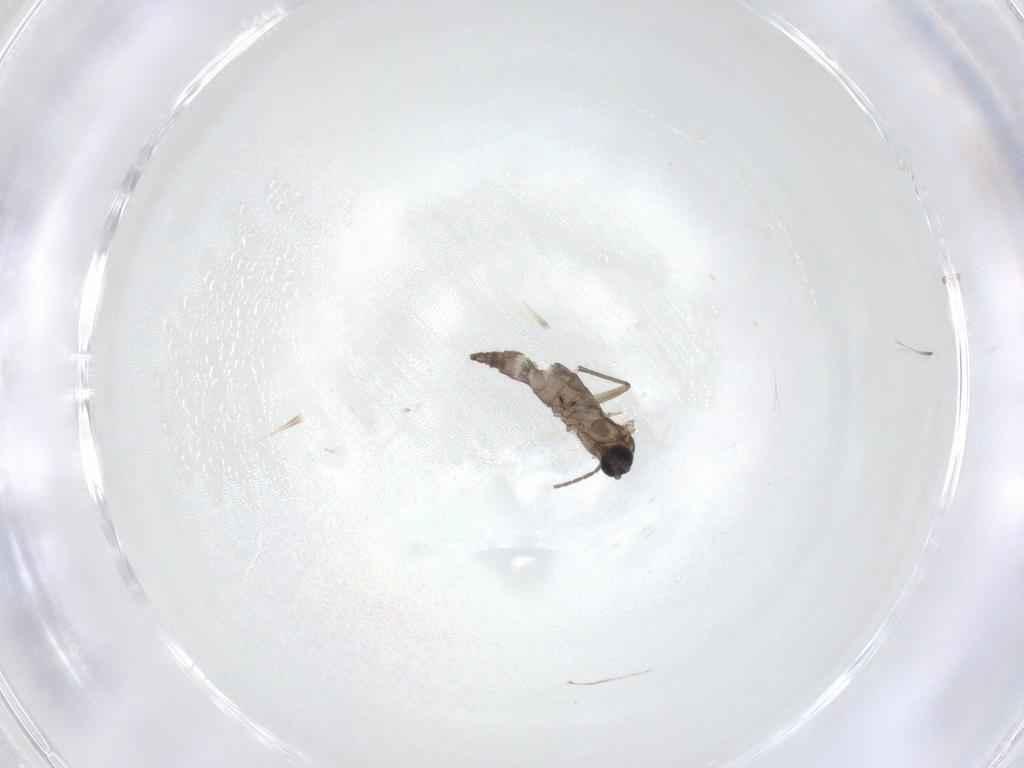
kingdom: Animalia
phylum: Arthropoda
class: Insecta
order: Diptera
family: Sciaridae
